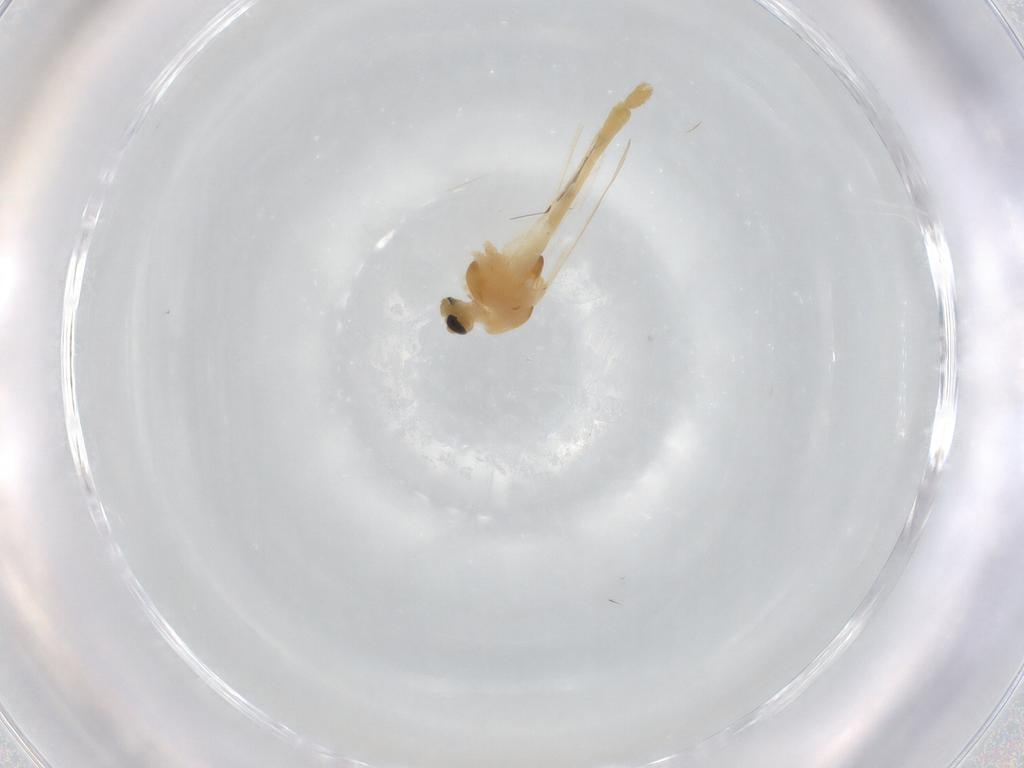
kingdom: Animalia
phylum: Arthropoda
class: Insecta
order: Diptera
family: Chironomidae
